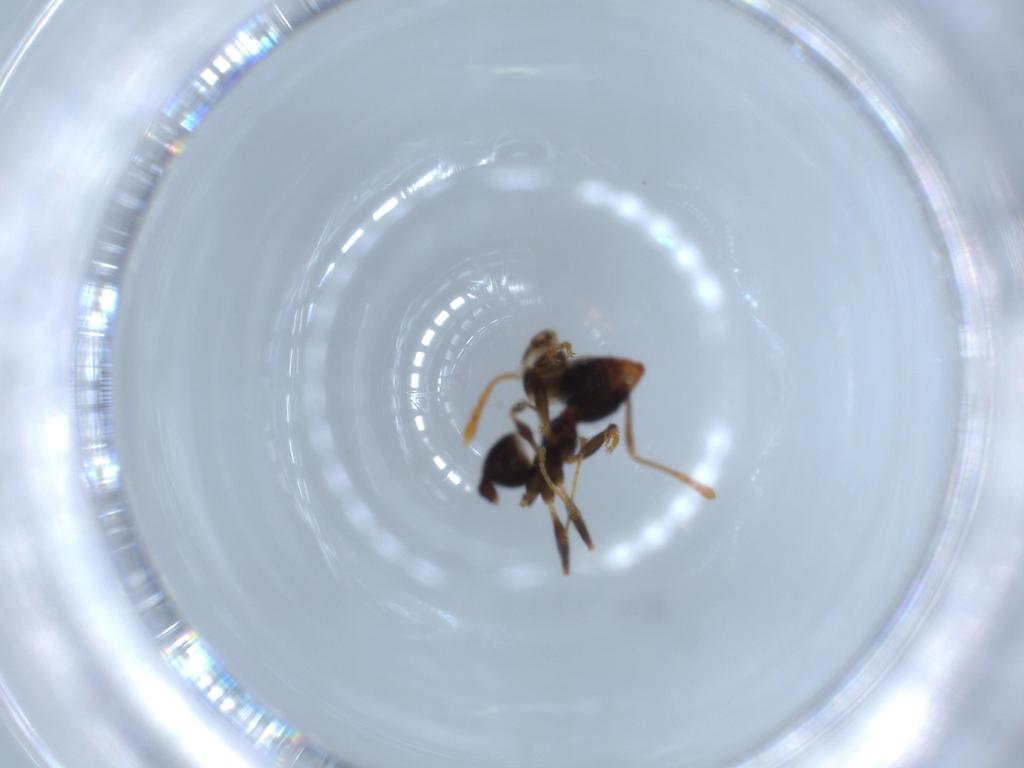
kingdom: Animalia
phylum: Arthropoda
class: Insecta
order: Hymenoptera
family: Formicidae
